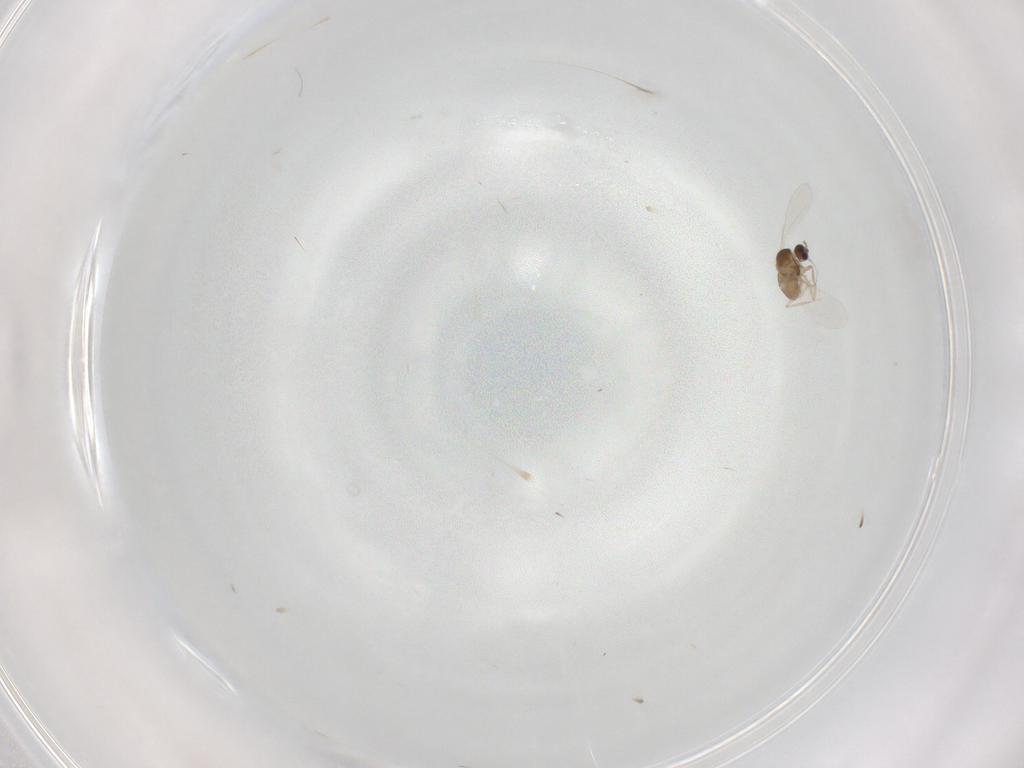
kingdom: Animalia
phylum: Arthropoda
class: Insecta
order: Diptera
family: Cecidomyiidae
